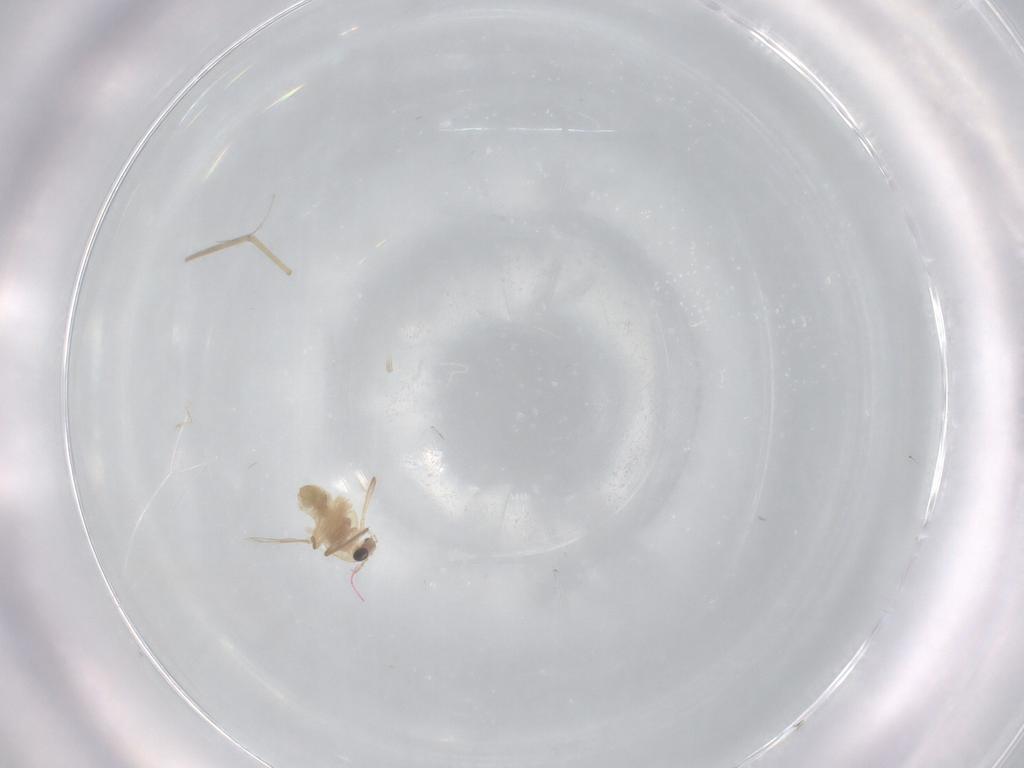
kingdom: Animalia
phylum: Arthropoda
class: Insecta
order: Diptera
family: Chironomidae
